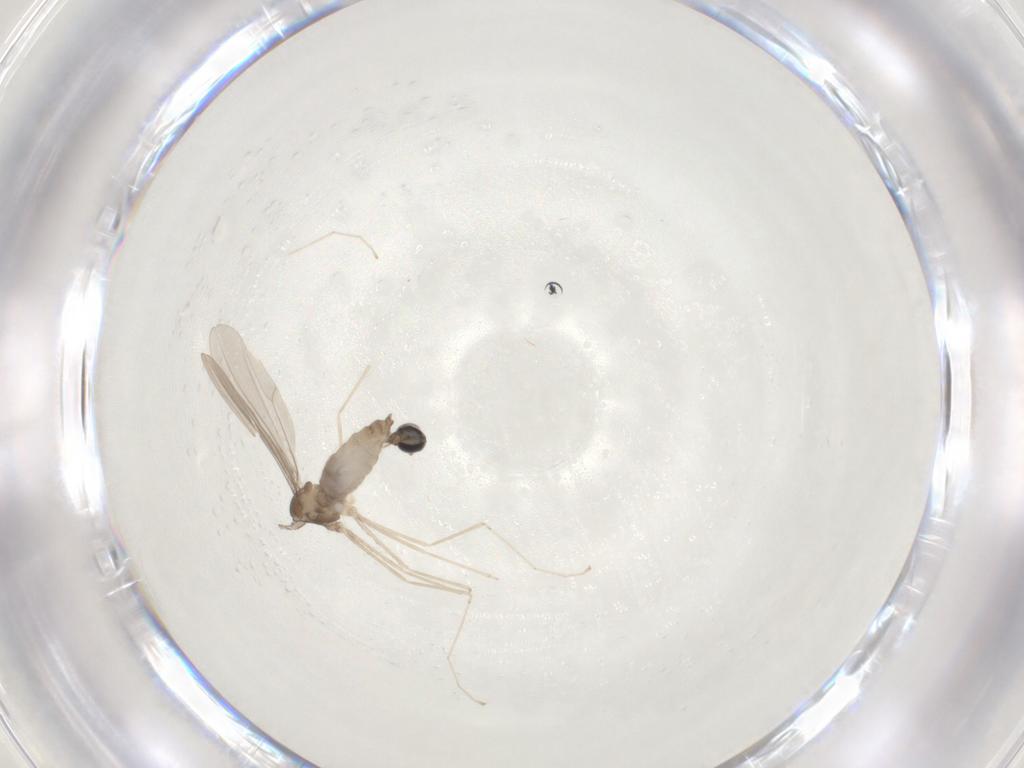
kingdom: Animalia
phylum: Arthropoda
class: Insecta
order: Diptera
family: Cecidomyiidae
